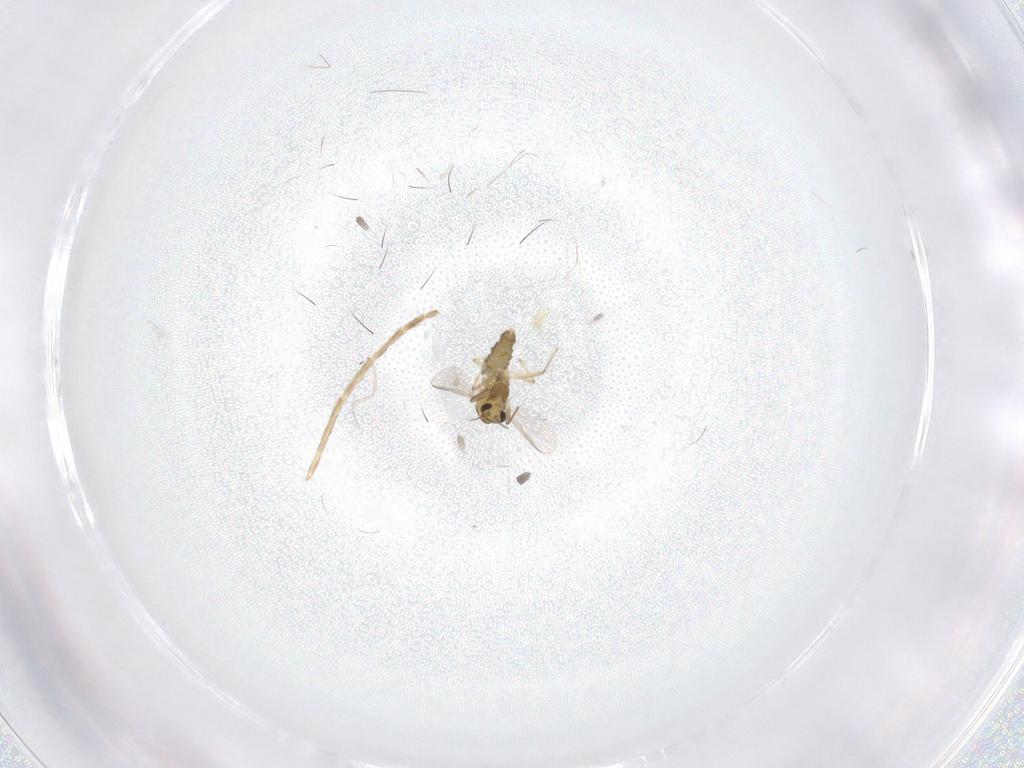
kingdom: Animalia
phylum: Arthropoda
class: Insecta
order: Diptera
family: Chironomidae
